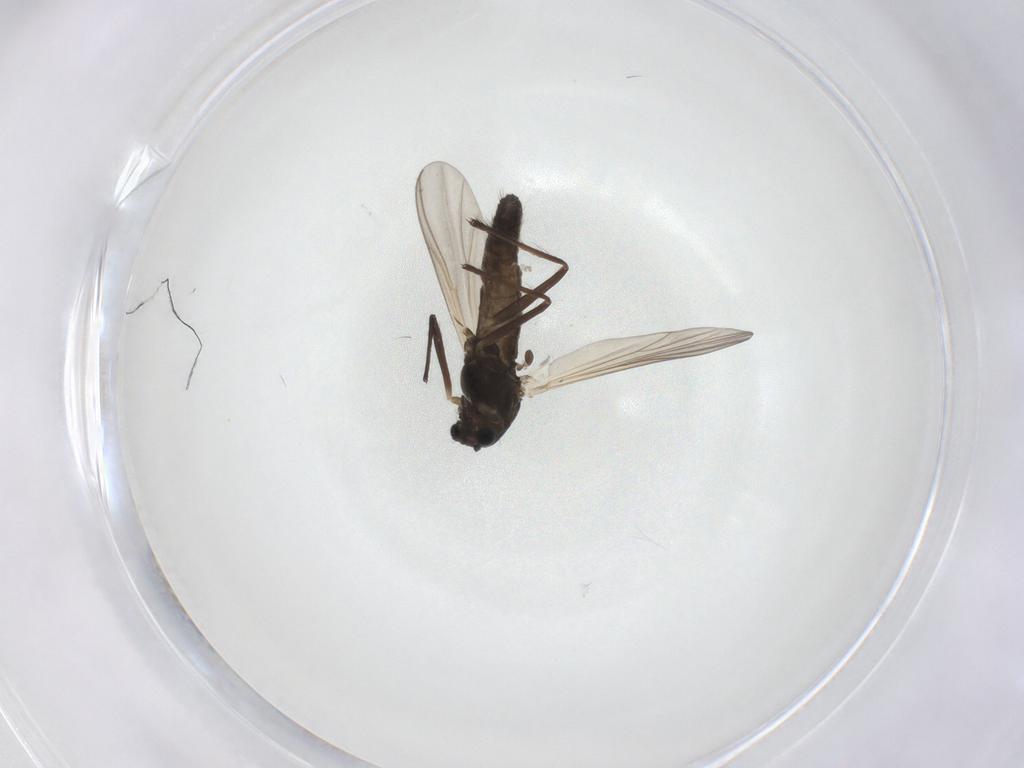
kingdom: Animalia
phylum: Arthropoda
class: Insecta
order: Diptera
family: Chironomidae
